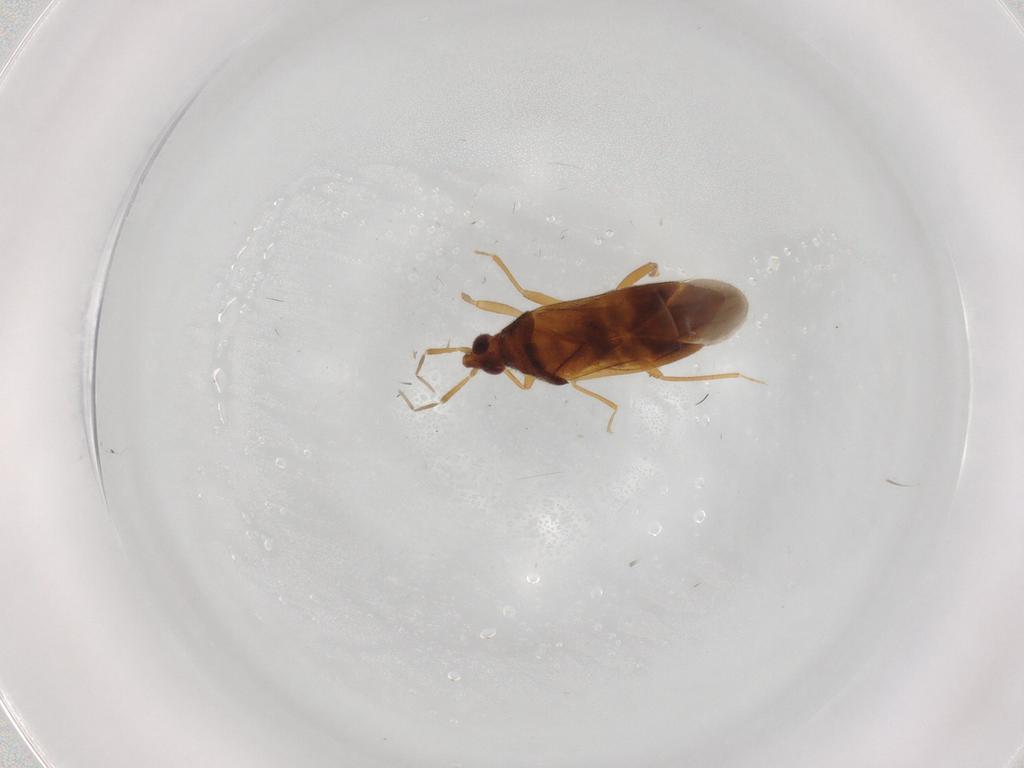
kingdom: Animalia
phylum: Arthropoda
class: Insecta
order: Hemiptera
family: Anthocoridae
